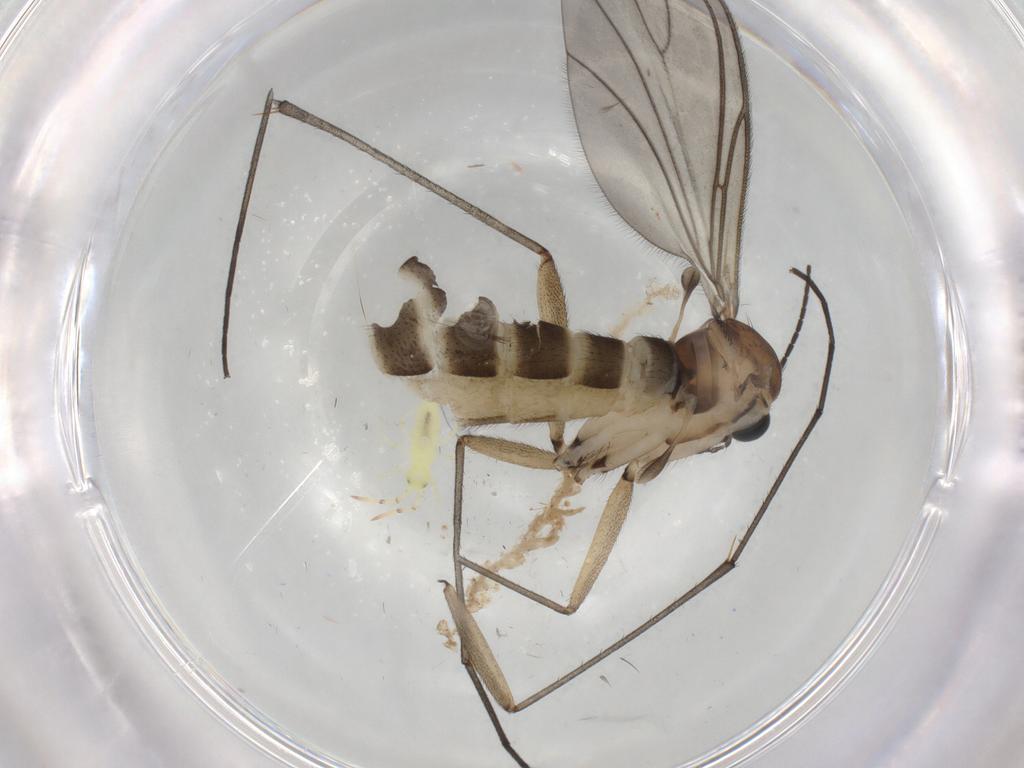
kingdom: Animalia
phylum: Arthropoda
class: Insecta
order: Diptera
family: Sciaridae
